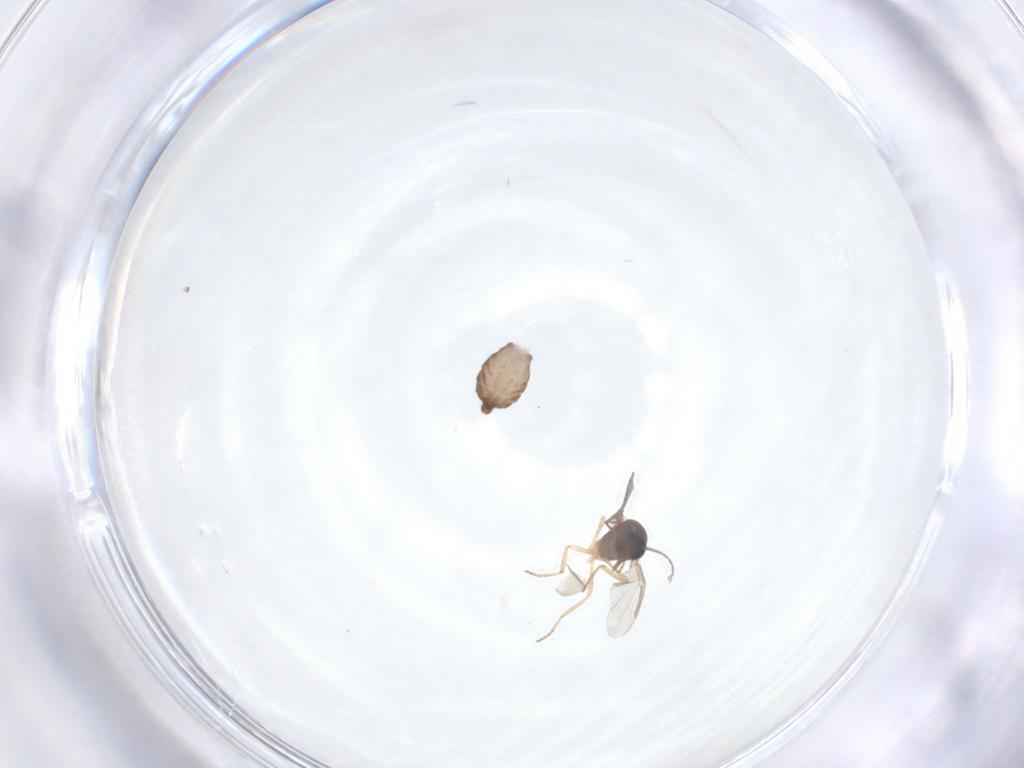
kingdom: Animalia
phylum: Arthropoda
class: Insecta
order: Diptera
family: Ceratopogonidae
